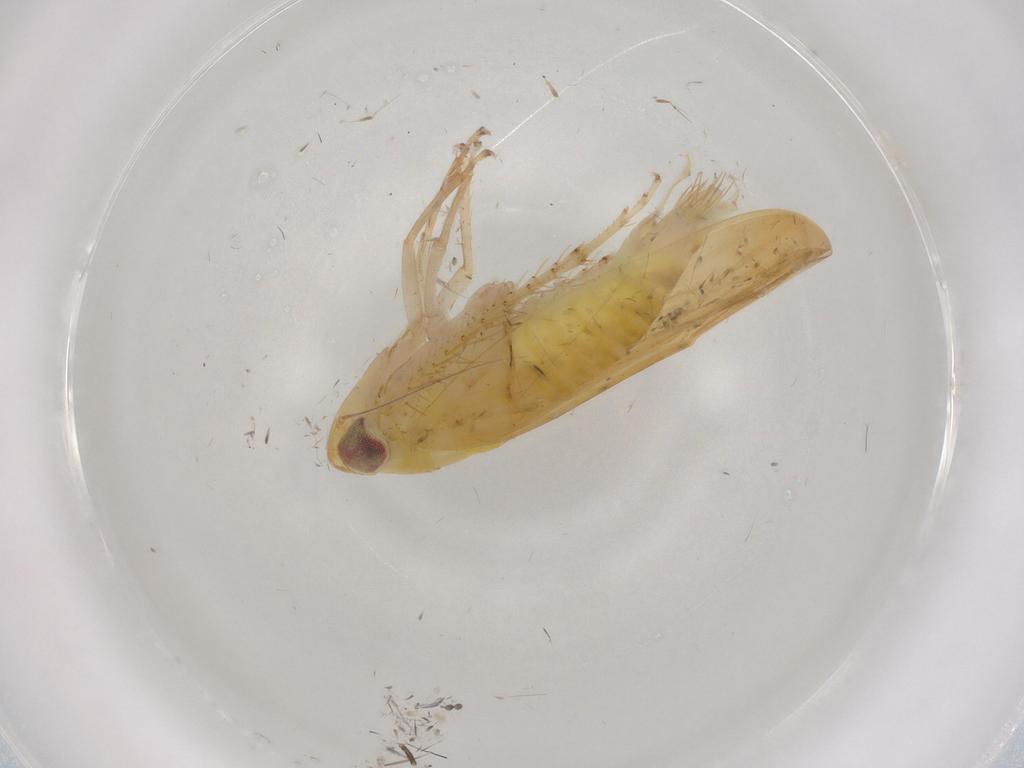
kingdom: Animalia
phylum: Arthropoda
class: Insecta
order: Hemiptera
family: Cicadellidae
